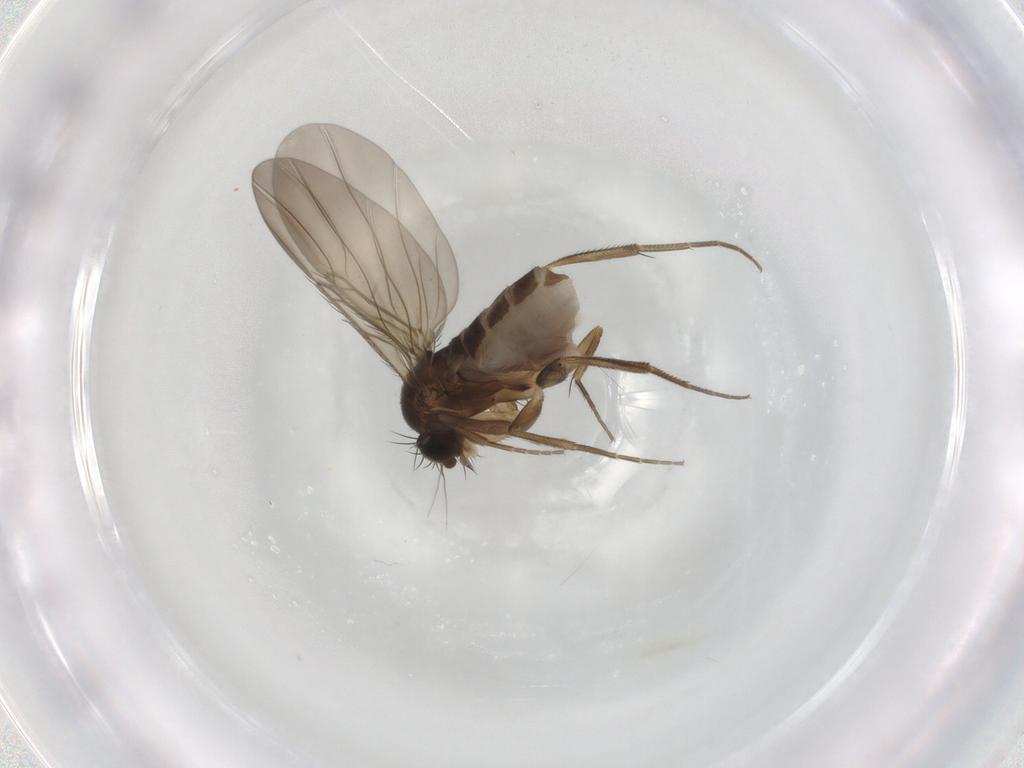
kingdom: Animalia
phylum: Arthropoda
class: Insecta
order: Diptera
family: Phoridae
